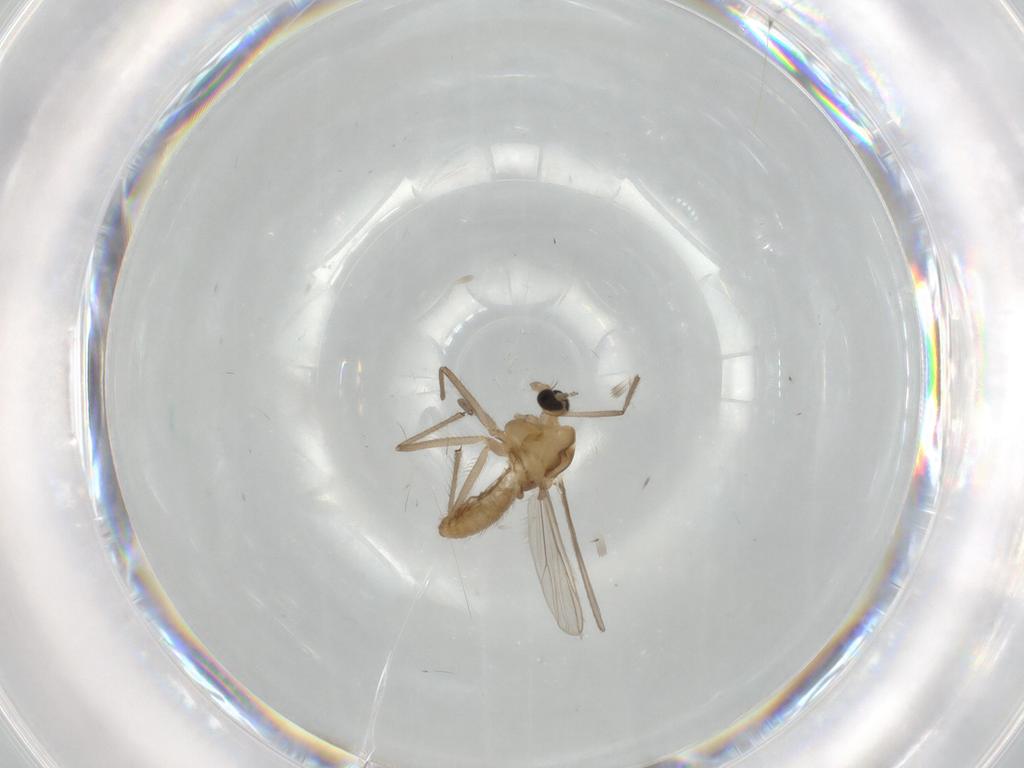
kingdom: Animalia
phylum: Arthropoda
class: Insecta
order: Diptera
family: Chironomidae
